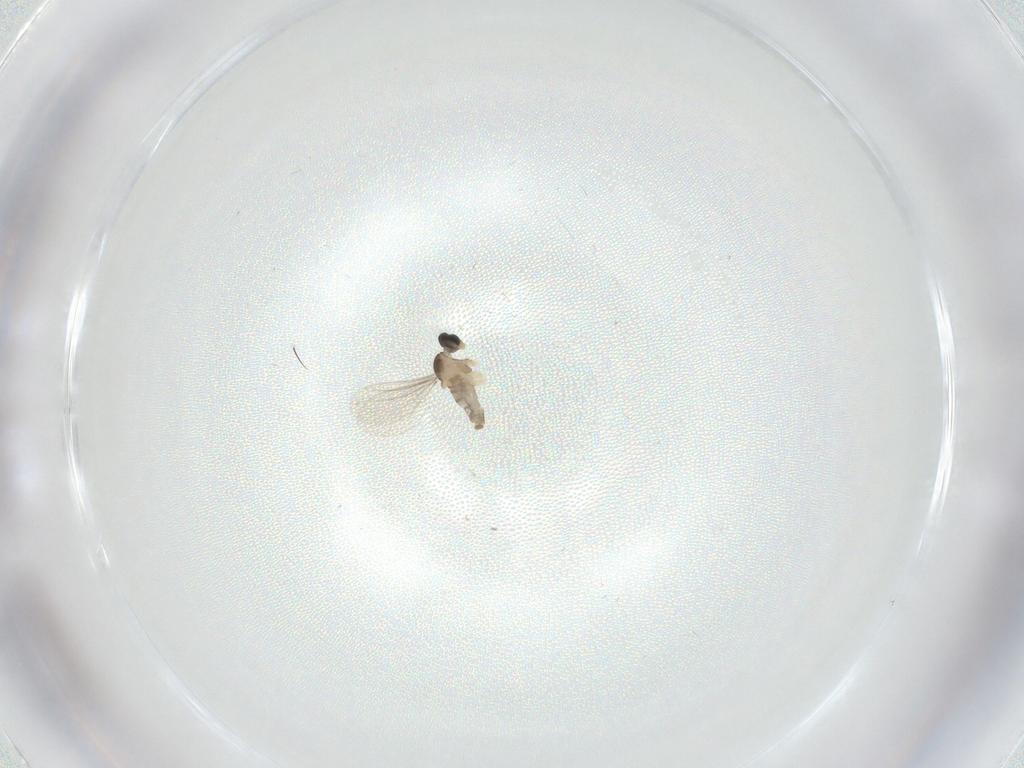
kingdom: Animalia
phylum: Arthropoda
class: Insecta
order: Diptera
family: Cecidomyiidae
